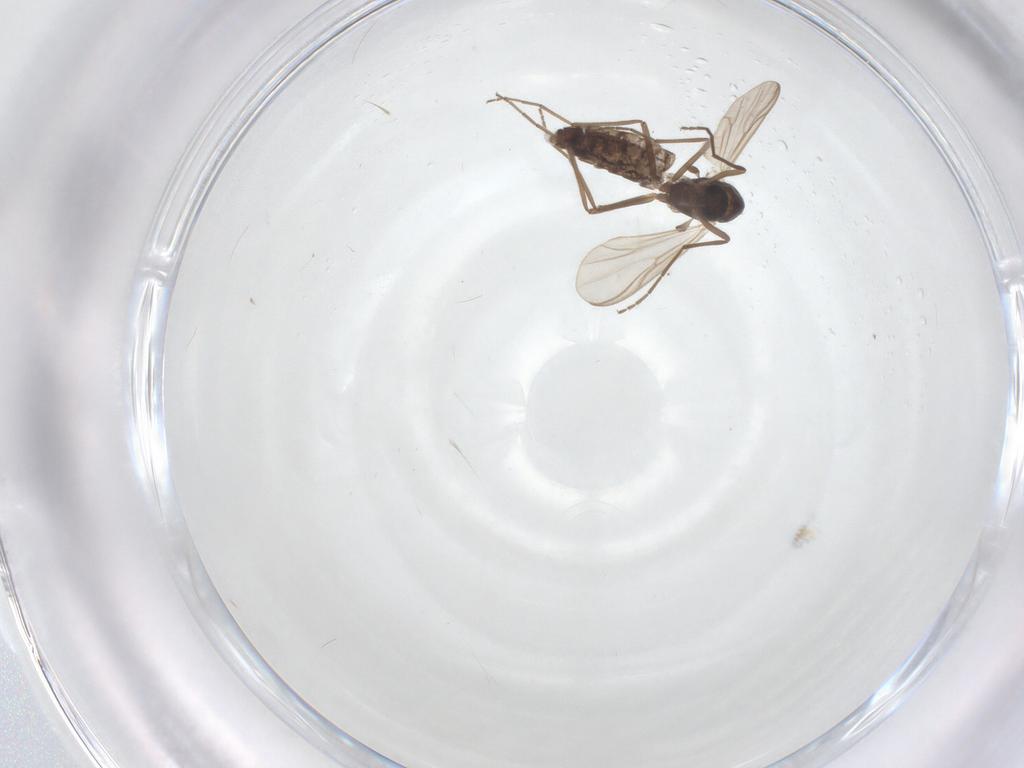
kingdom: Animalia
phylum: Arthropoda
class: Insecta
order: Diptera
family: Chironomidae
